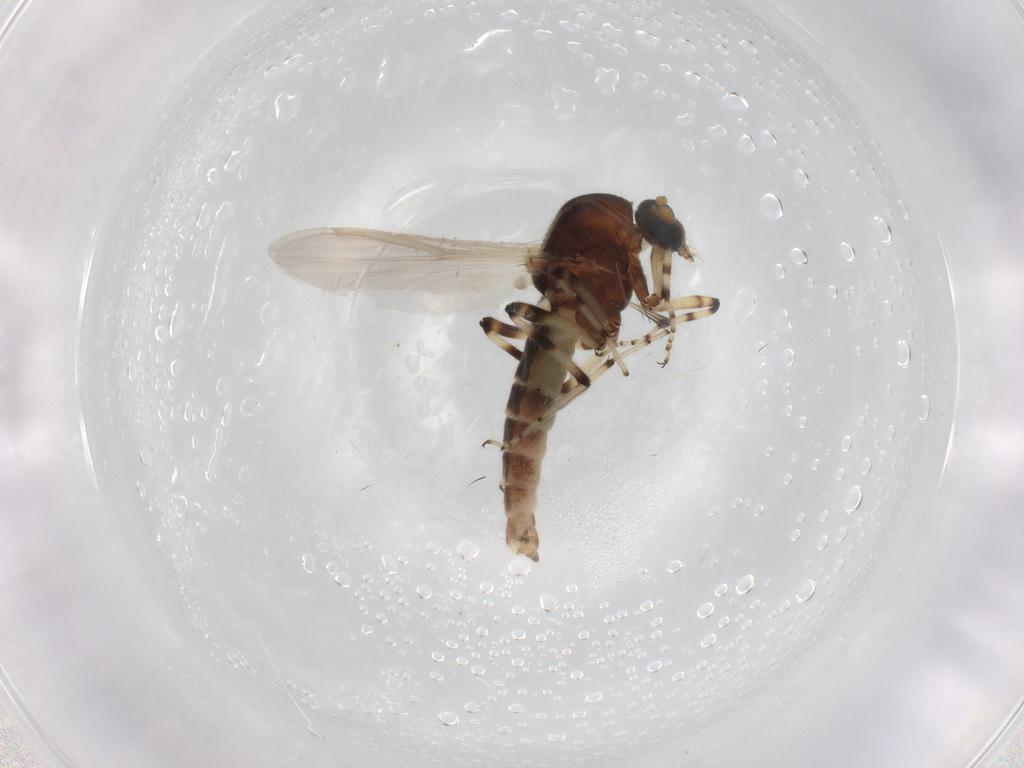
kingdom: Animalia
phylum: Arthropoda
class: Insecta
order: Diptera
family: Ceratopogonidae
